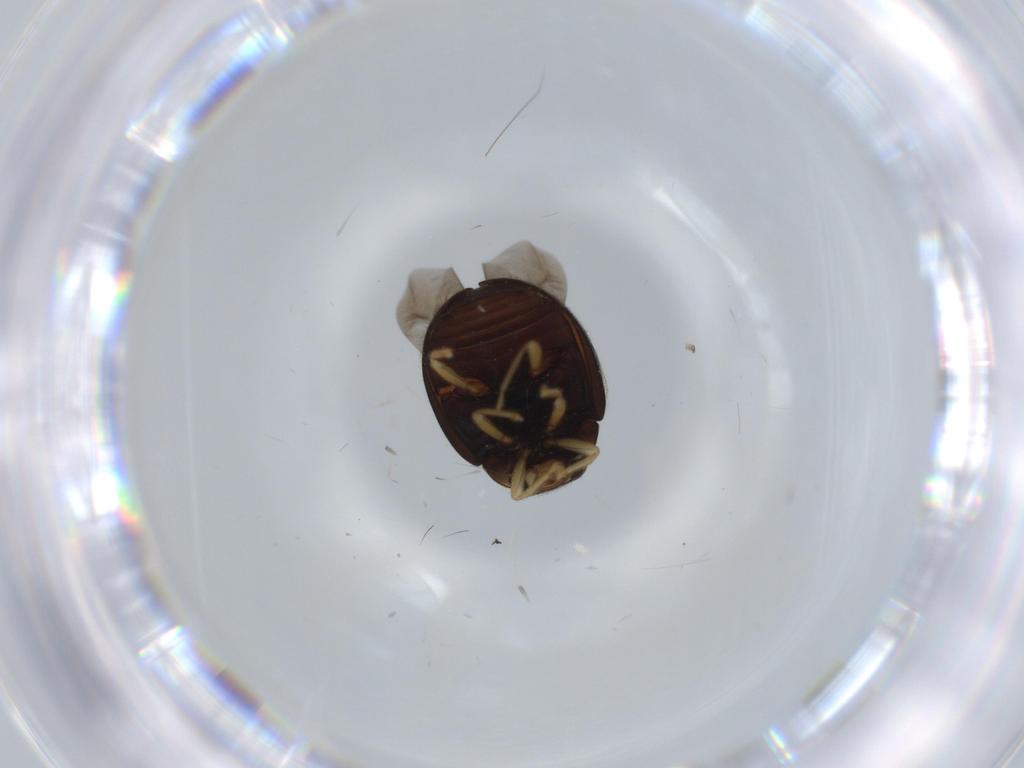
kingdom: Animalia
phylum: Arthropoda
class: Insecta
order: Coleoptera
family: Coccinellidae
